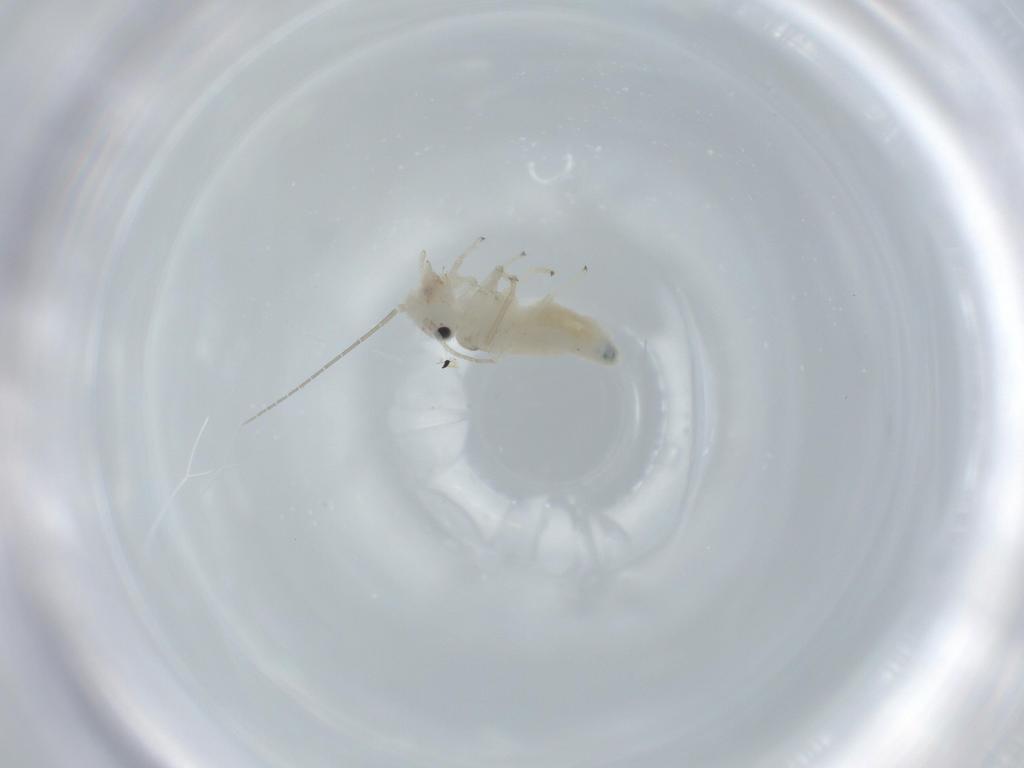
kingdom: Animalia
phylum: Arthropoda
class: Insecta
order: Psocodea
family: Caeciliusidae
